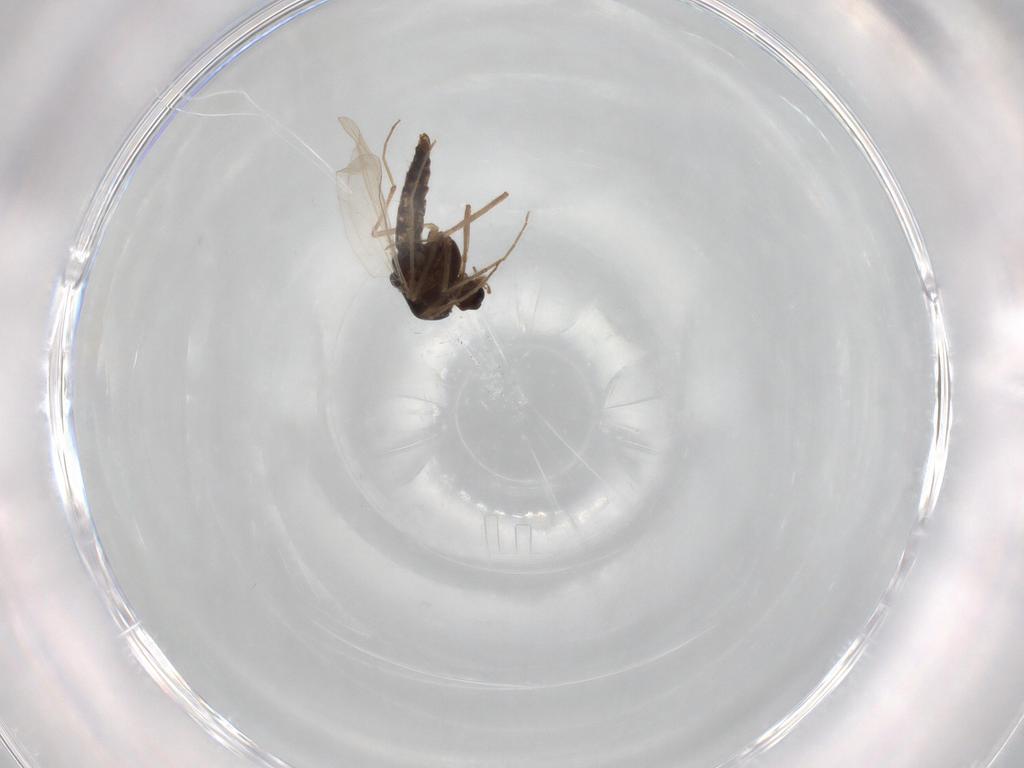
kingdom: Animalia
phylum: Arthropoda
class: Insecta
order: Diptera
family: Chironomidae
